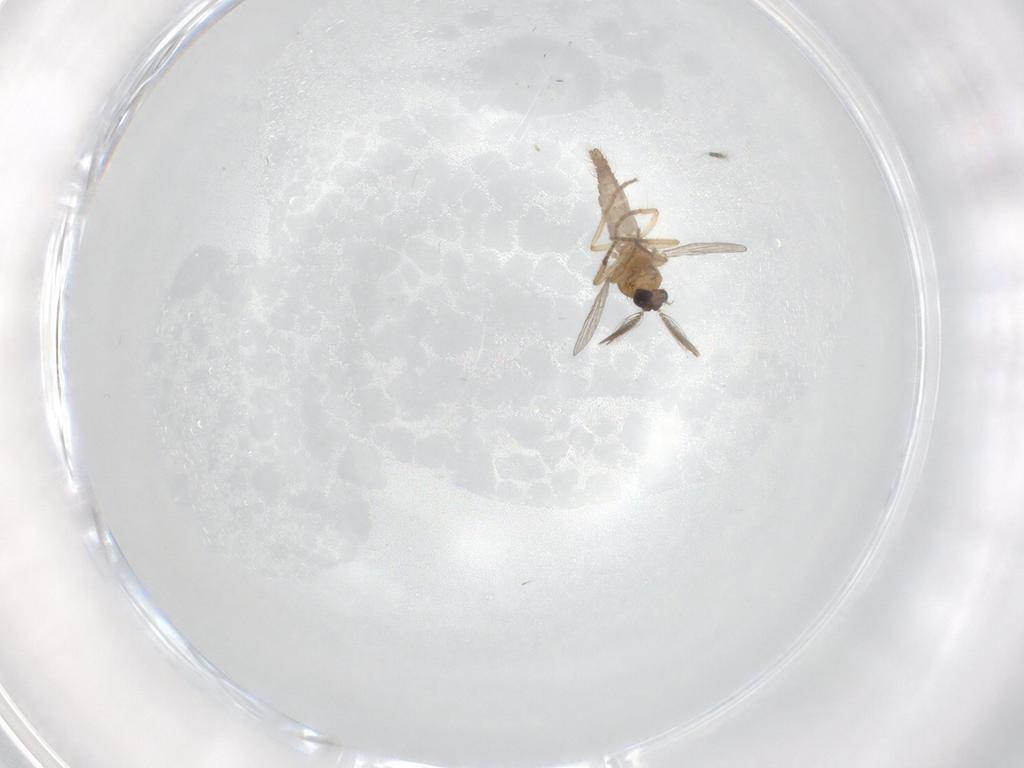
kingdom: Animalia
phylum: Arthropoda
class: Insecta
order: Diptera
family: Ceratopogonidae
